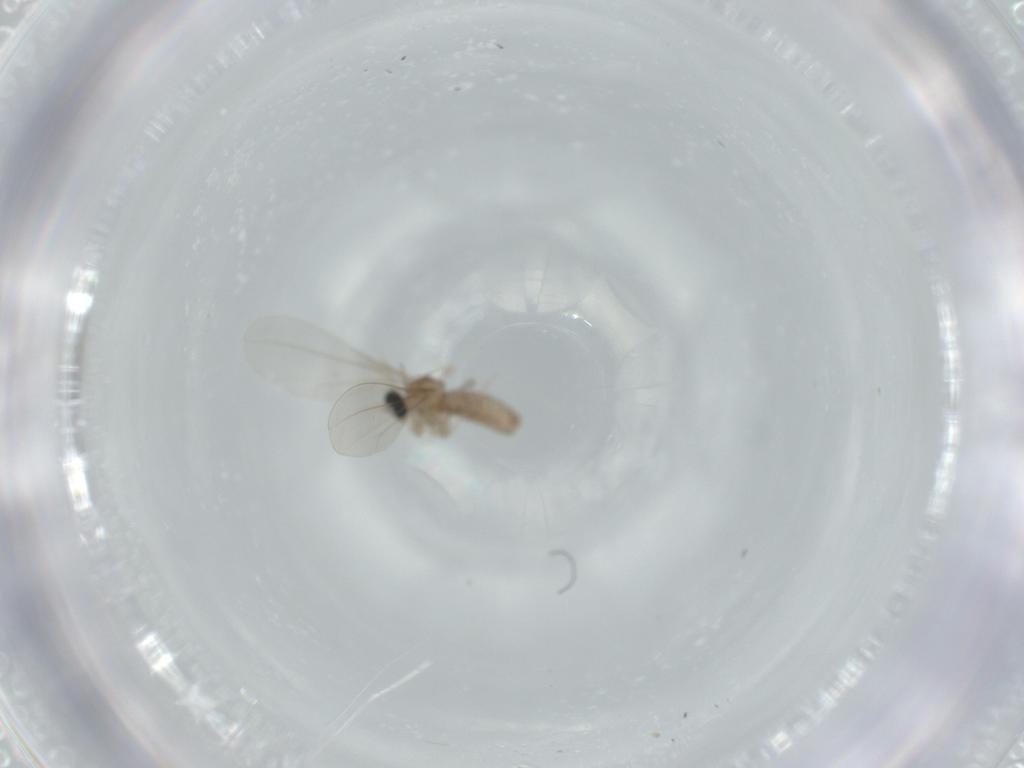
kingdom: Animalia
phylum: Arthropoda
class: Insecta
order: Diptera
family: Cecidomyiidae
